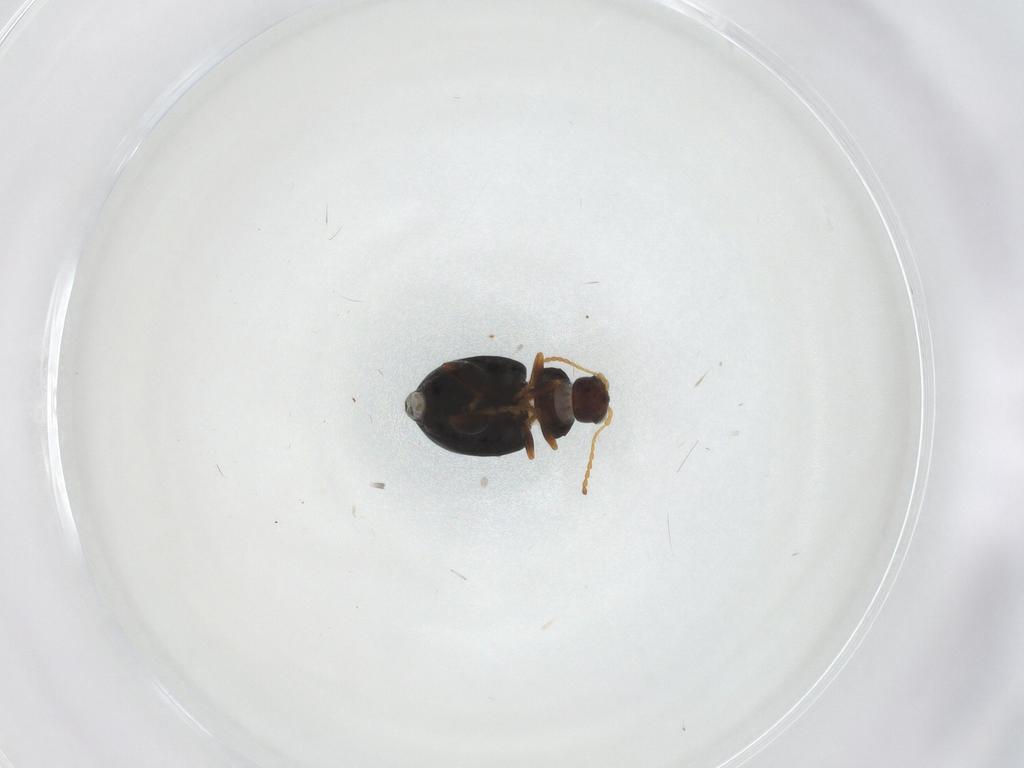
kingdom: Animalia
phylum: Arthropoda
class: Insecta
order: Coleoptera
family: Chrysomelidae
